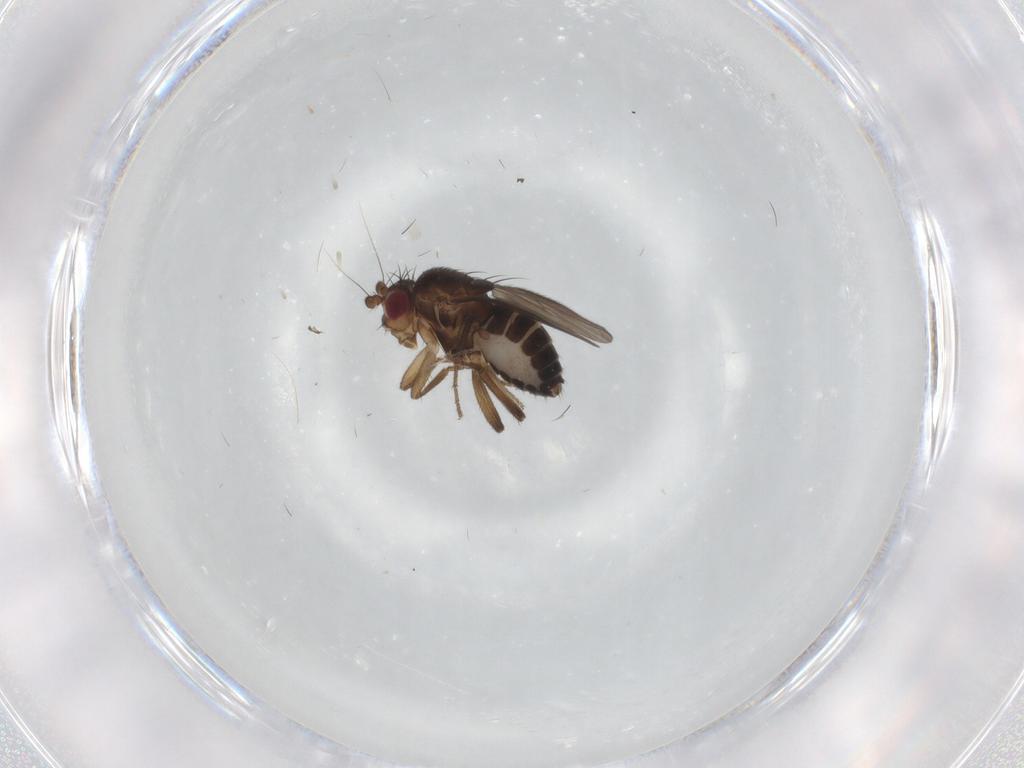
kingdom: Animalia
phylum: Arthropoda
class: Insecta
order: Diptera
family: Sphaeroceridae
